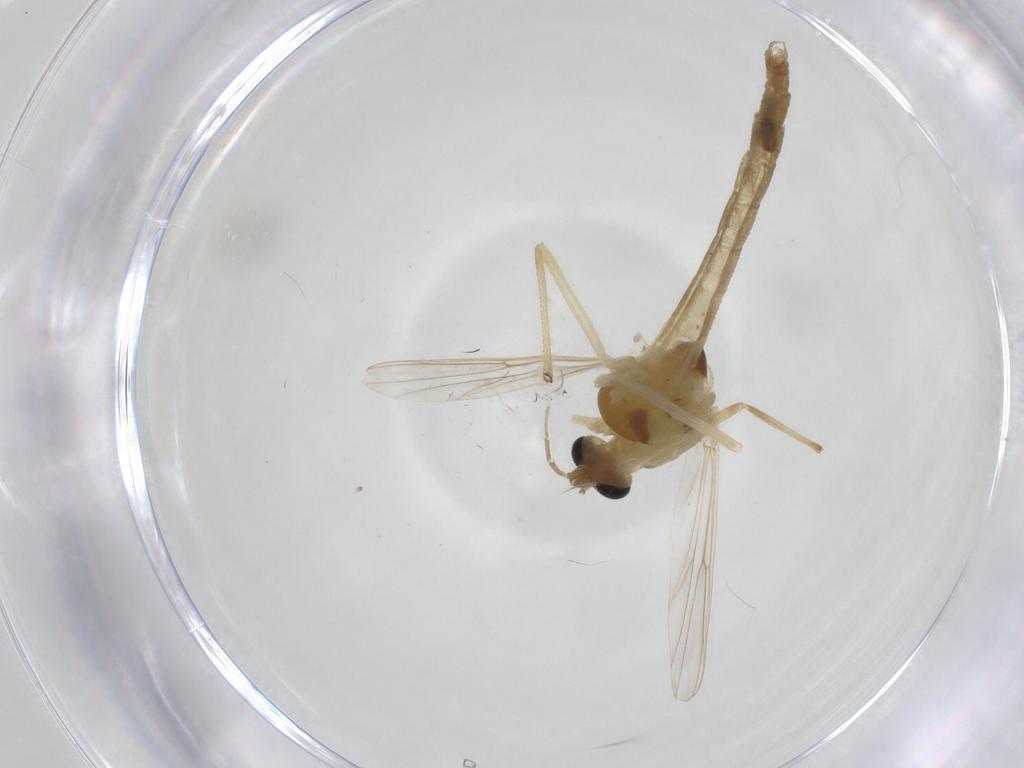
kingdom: Animalia
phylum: Arthropoda
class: Insecta
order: Diptera
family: Chironomidae
